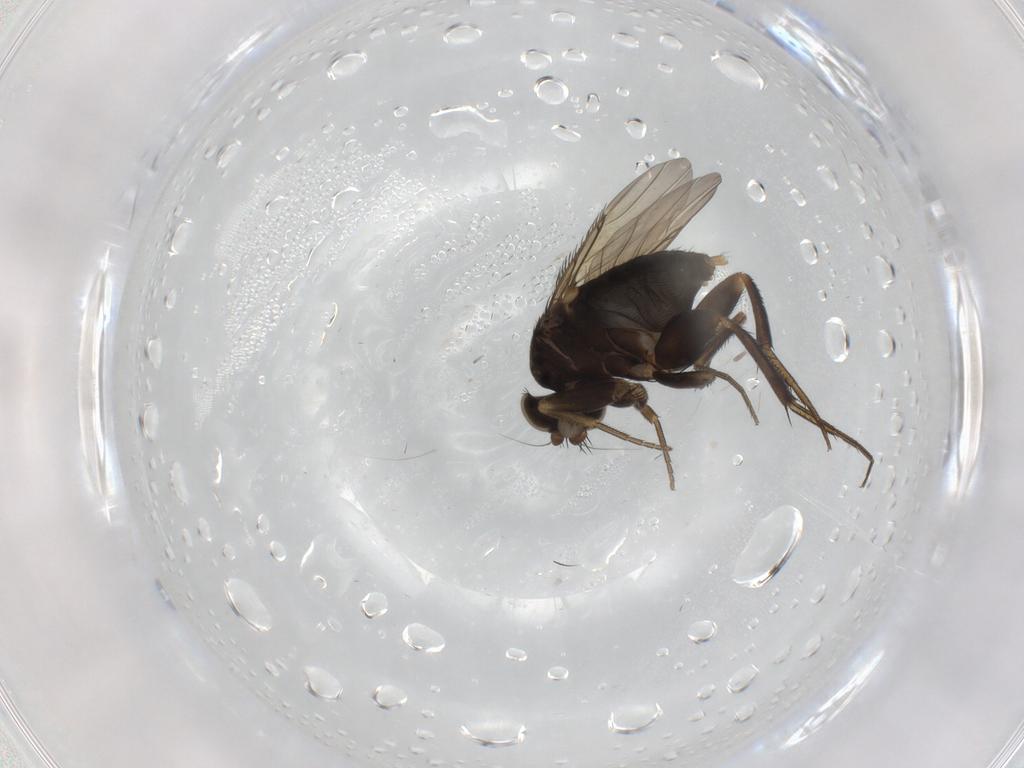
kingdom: Animalia
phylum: Arthropoda
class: Insecta
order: Diptera
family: Phoridae
